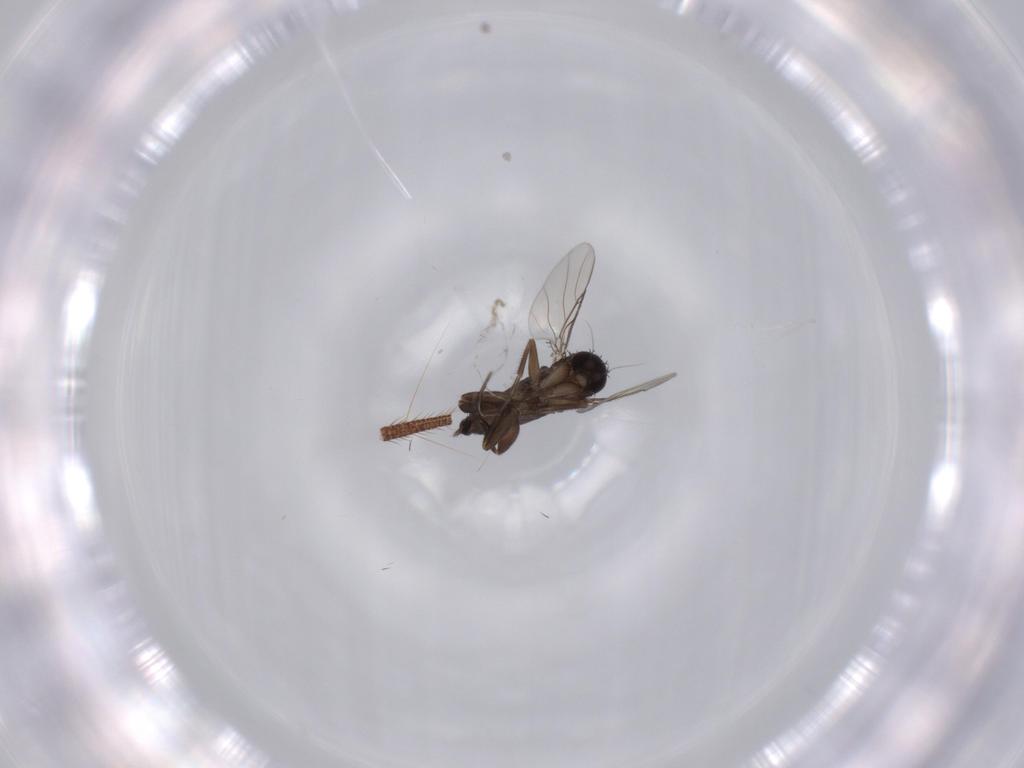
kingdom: Animalia
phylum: Arthropoda
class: Insecta
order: Diptera
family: Phoridae
